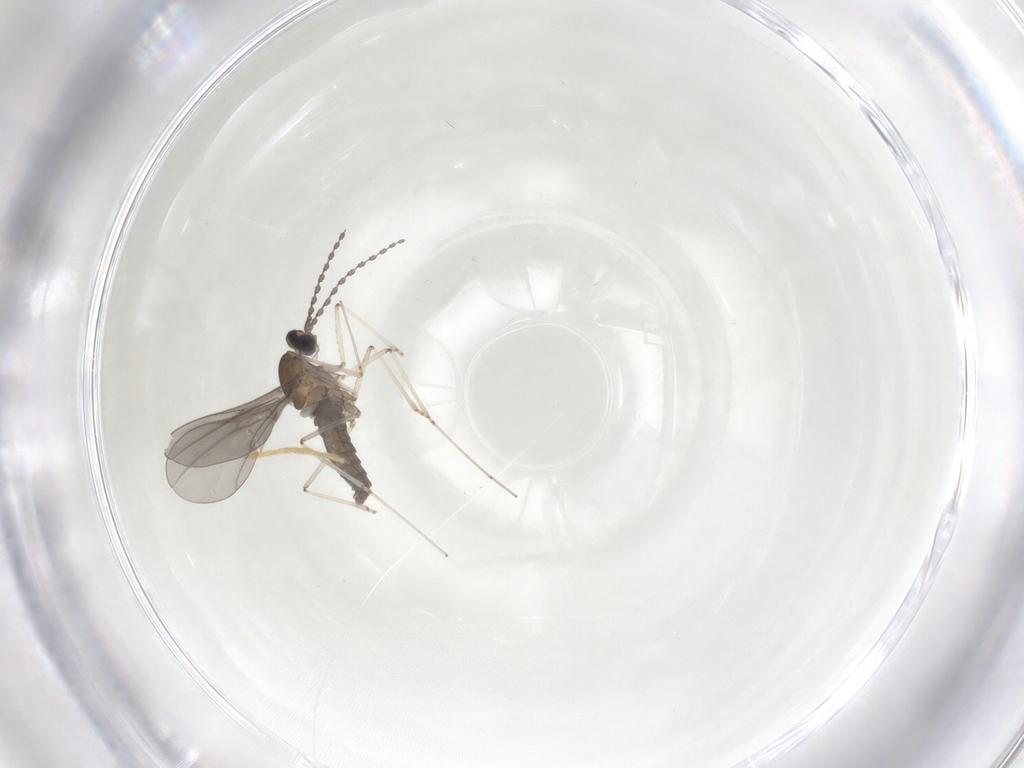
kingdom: Animalia
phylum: Arthropoda
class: Insecta
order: Diptera
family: Cecidomyiidae
